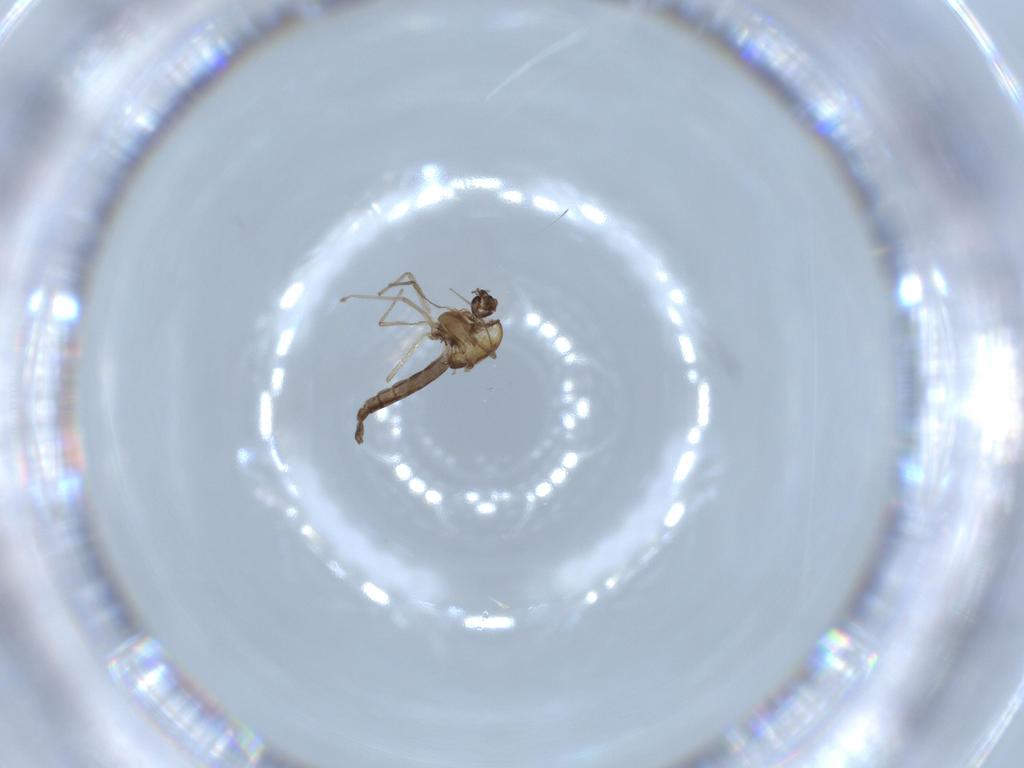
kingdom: Animalia
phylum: Arthropoda
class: Insecta
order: Diptera
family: Chironomidae
